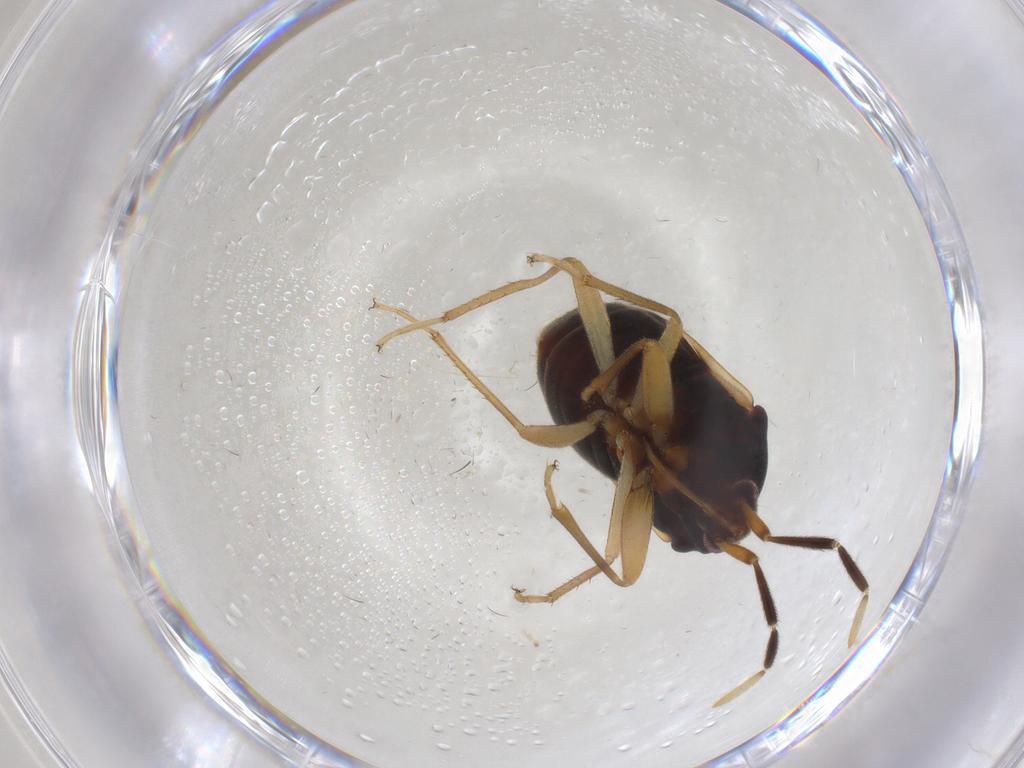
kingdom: Animalia
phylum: Arthropoda
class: Insecta
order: Hemiptera
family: Rhyparochromidae
